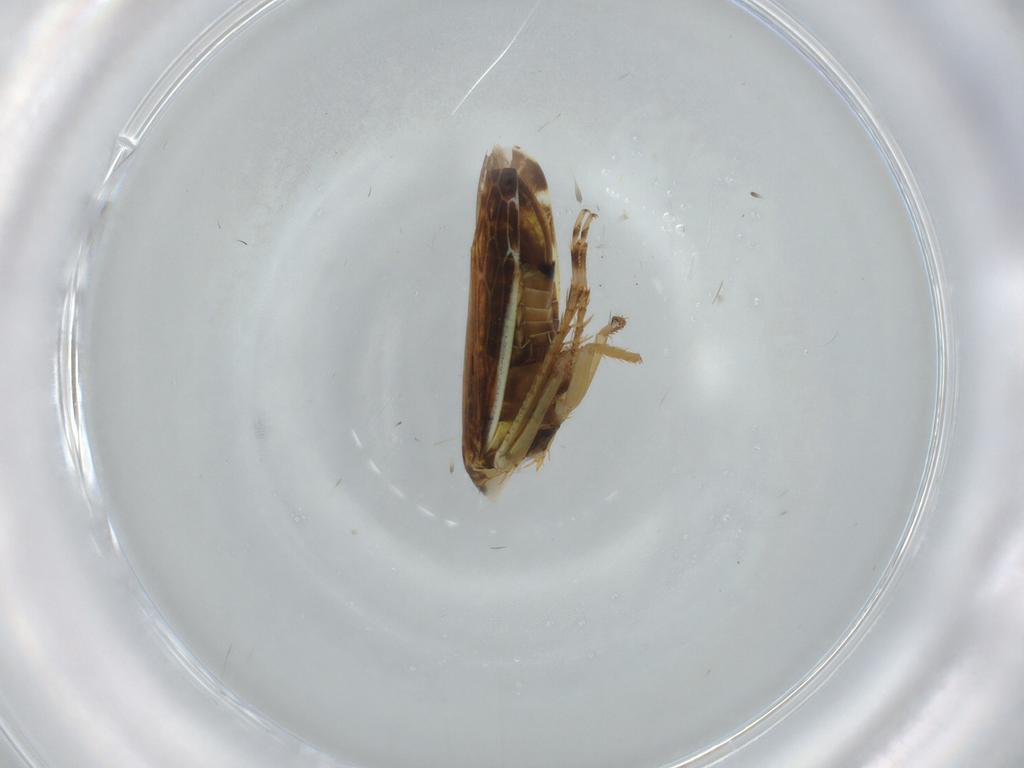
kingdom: Animalia
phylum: Arthropoda
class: Insecta
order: Hemiptera
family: Cicadellidae
